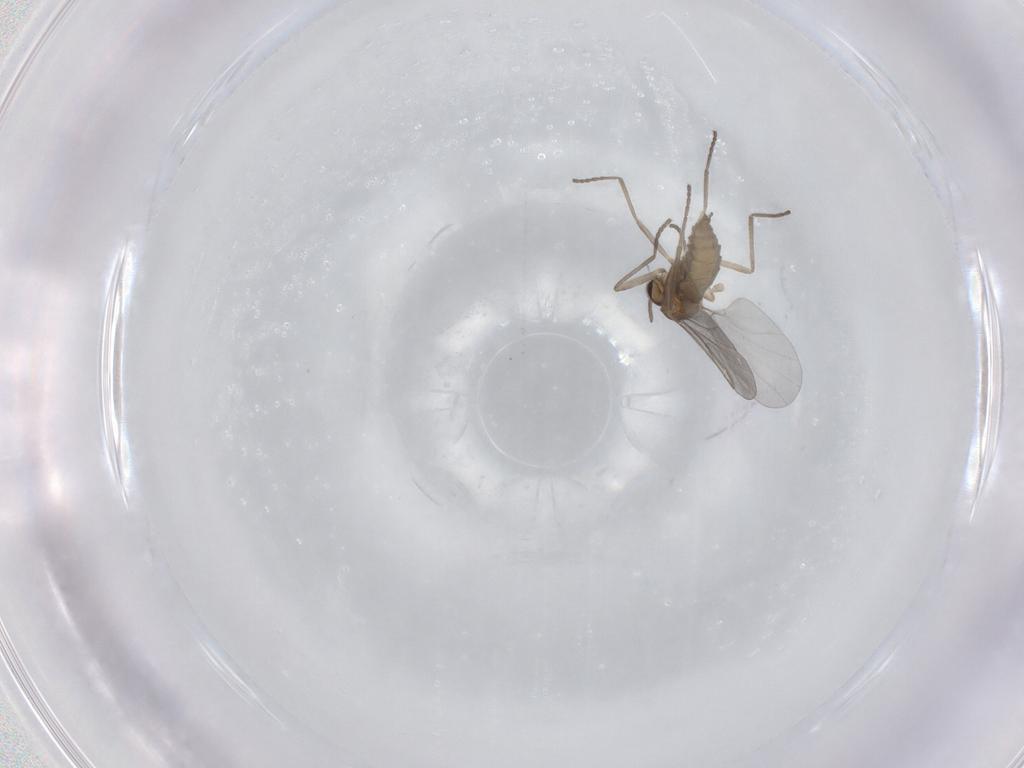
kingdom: Animalia
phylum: Arthropoda
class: Insecta
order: Diptera
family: Cecidomyiidae
